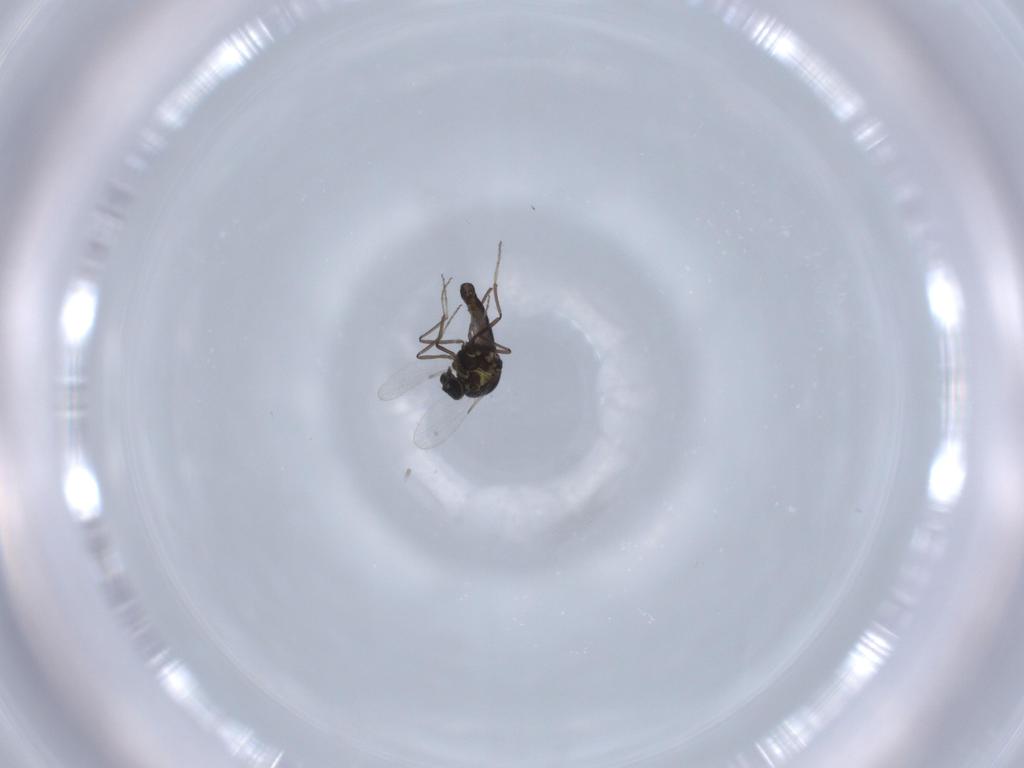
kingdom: Animalia
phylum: Arthropoda
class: Insecta
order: Diptera
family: Ceratopogonidae
